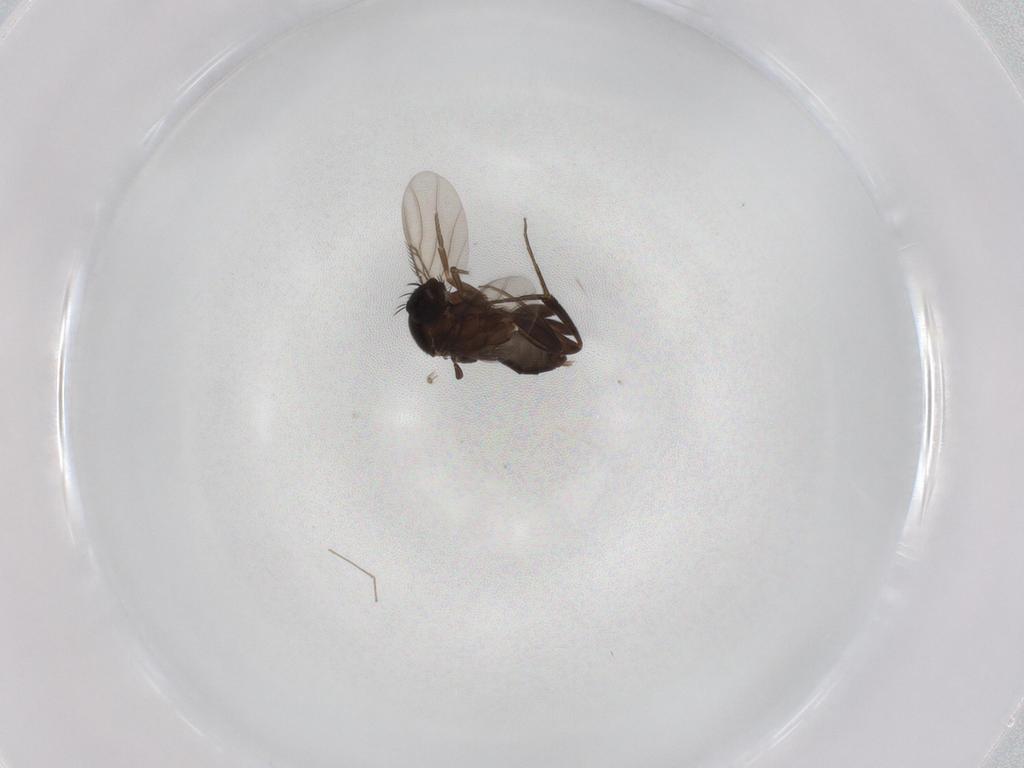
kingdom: Animalia
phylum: Arthropoda
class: Insecta
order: Diptera
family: Phoridae
